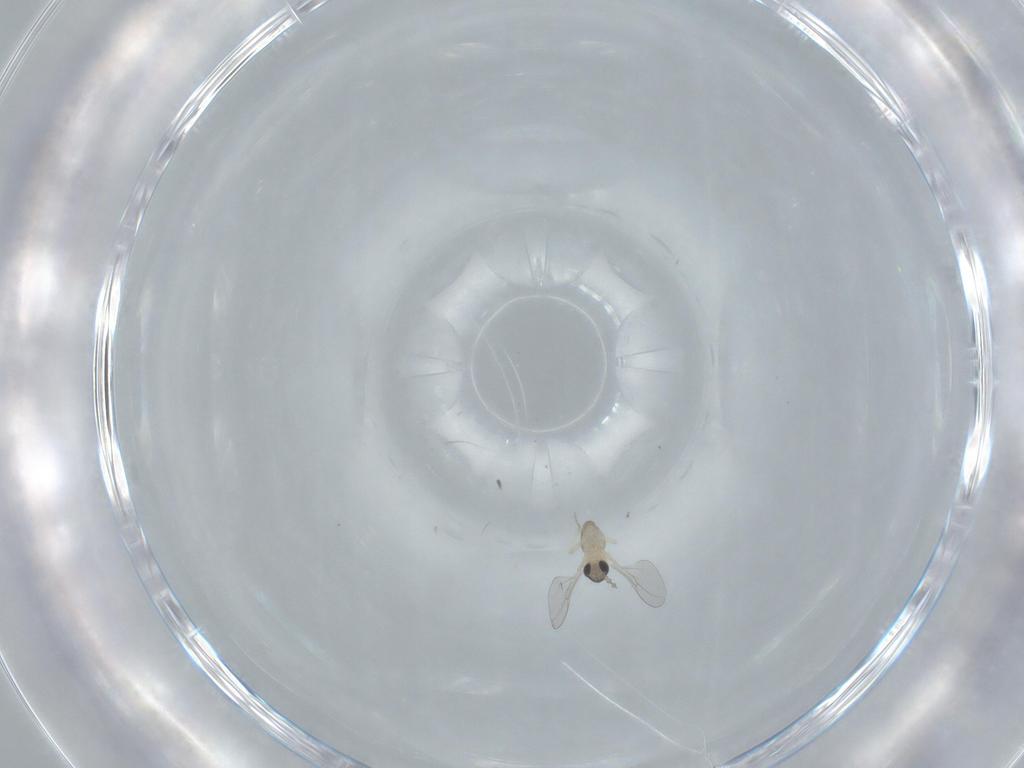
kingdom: Animalia
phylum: Arthropoda
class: Insecta
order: Diptera
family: Cecidomyiidae
